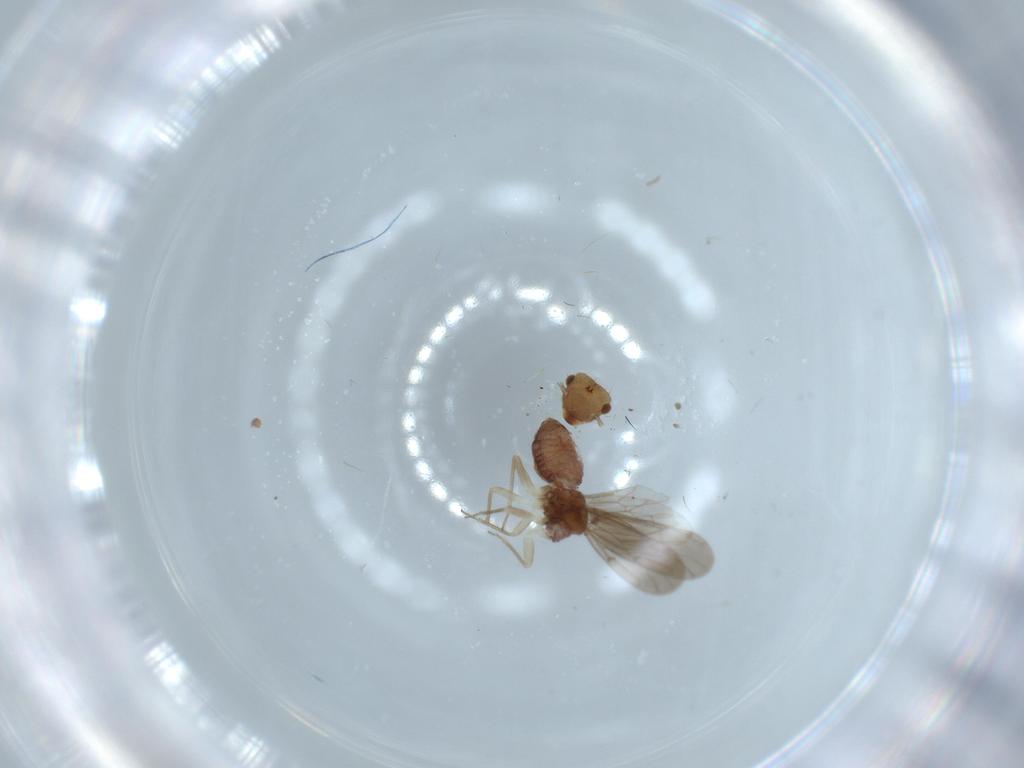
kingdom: Animalia
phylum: Arthropoda
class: Insecta
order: Psocodea
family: Ectopsocidae
